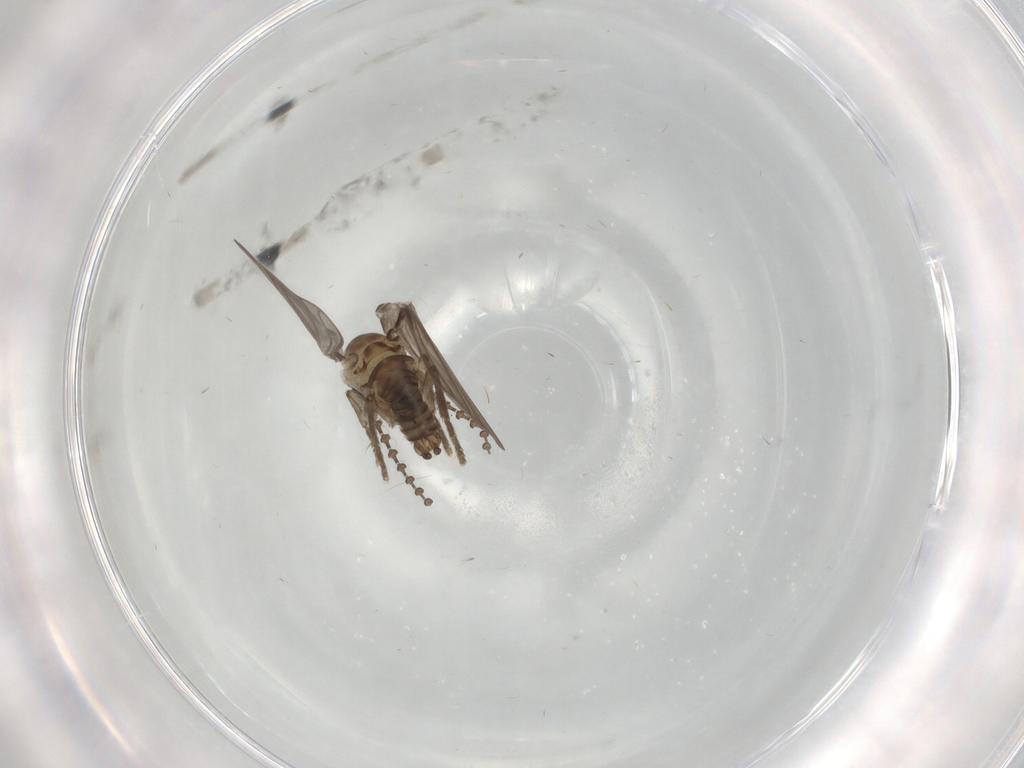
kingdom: Animalia
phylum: Arthropoda
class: Insecta
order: Diptera
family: Psychodidae
